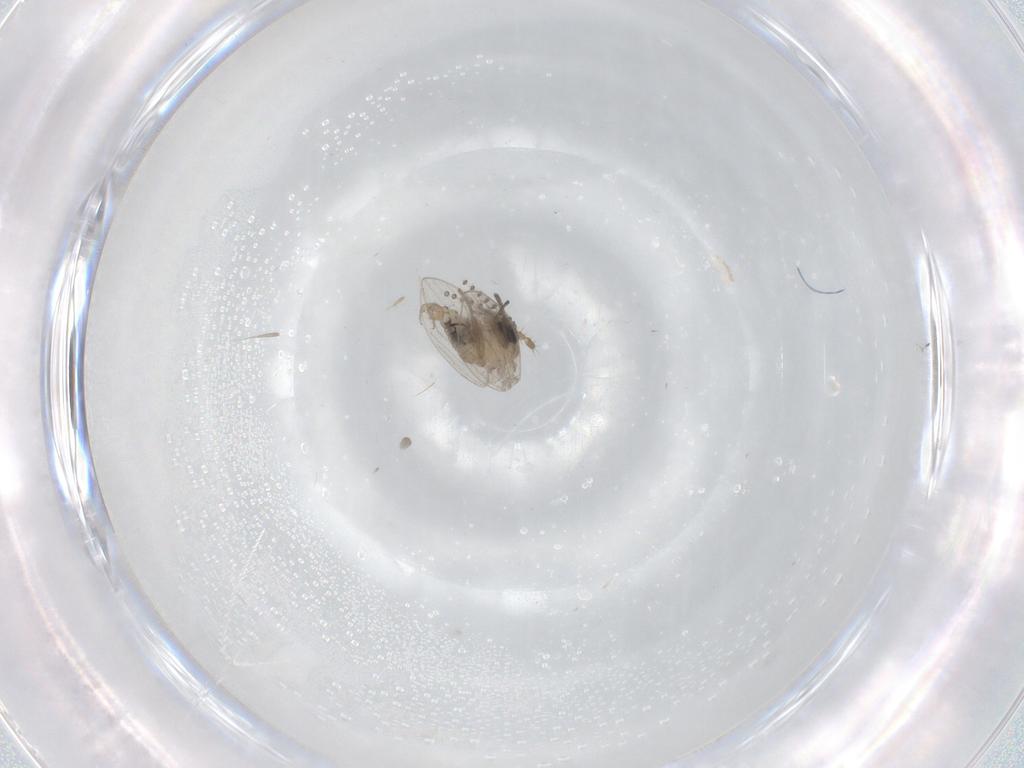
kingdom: Animalia
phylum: Arthropoda
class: Insecta
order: Diptera
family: Psychodidae
